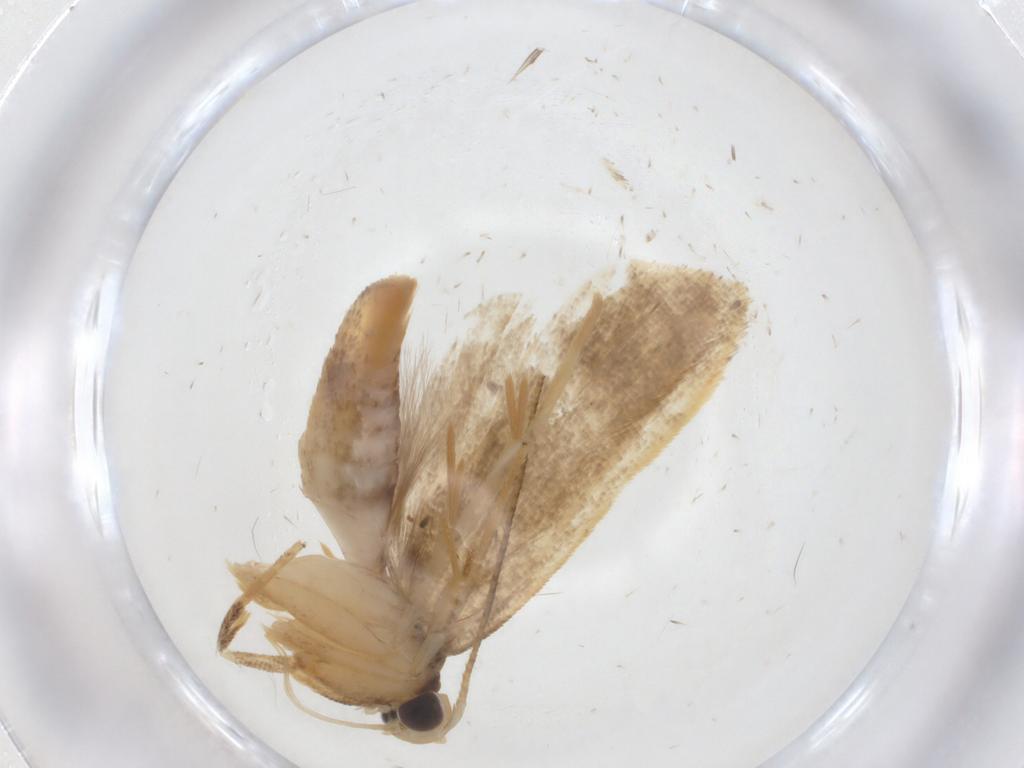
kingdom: Animalia
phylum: Arthropoda
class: Insecta
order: Lepidoptera
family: Gelechiidae
